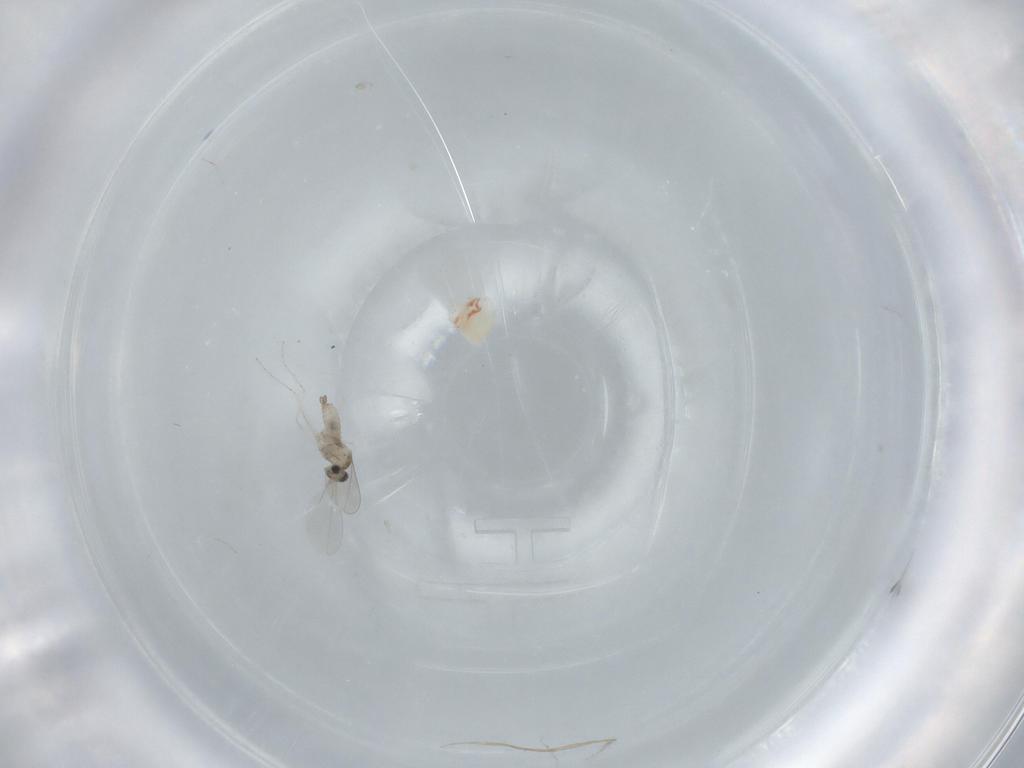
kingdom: Animalia
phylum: Arthropoda
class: Insecta
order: Diptera
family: Cecidomyiidae
